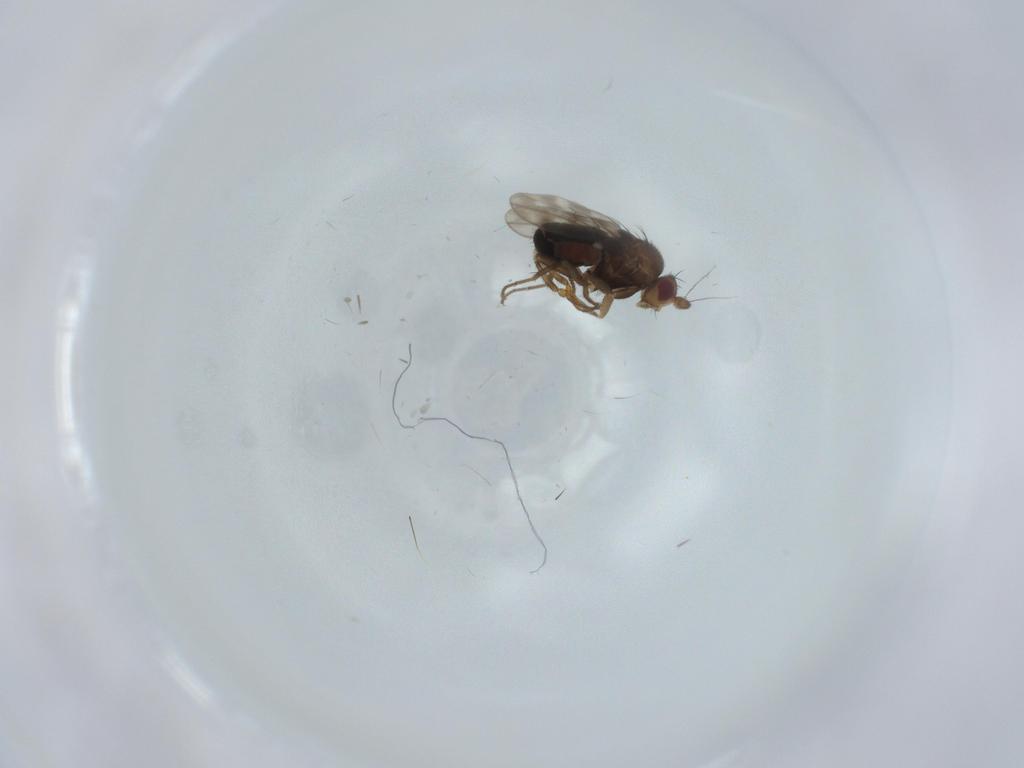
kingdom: Animalia
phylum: Arthropoda
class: Insecta
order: Diptera
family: Sphaeroceridae
